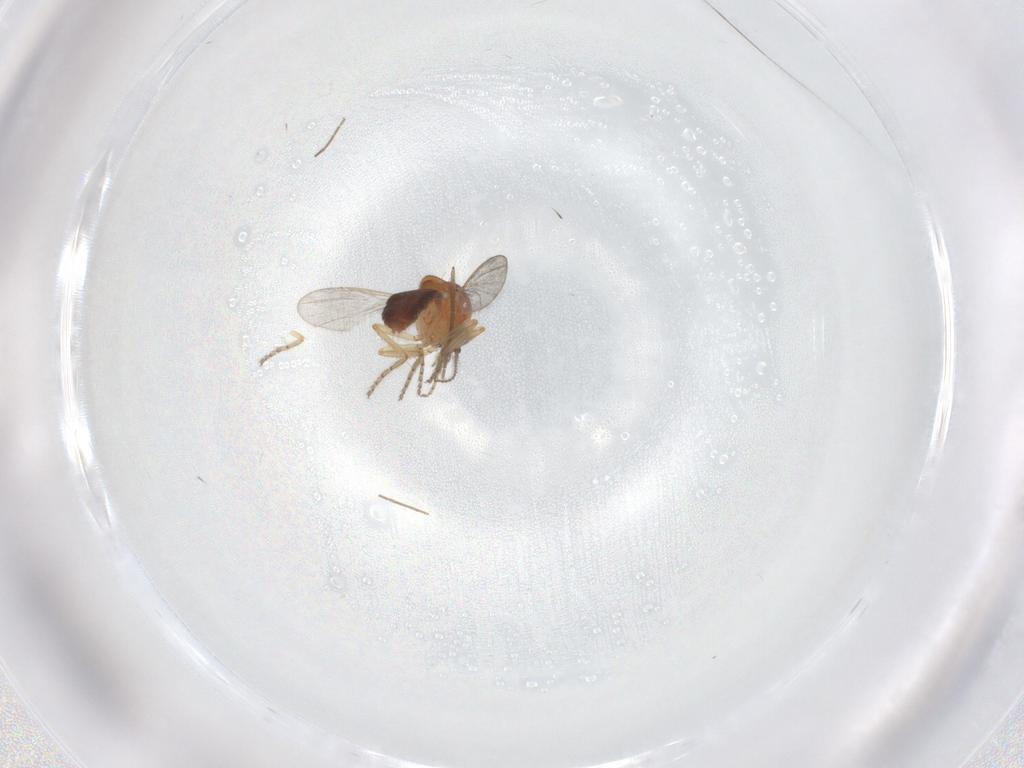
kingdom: Animalia
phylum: Arthropoda
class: Insecta
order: Diptera
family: Ceratopogonidae
